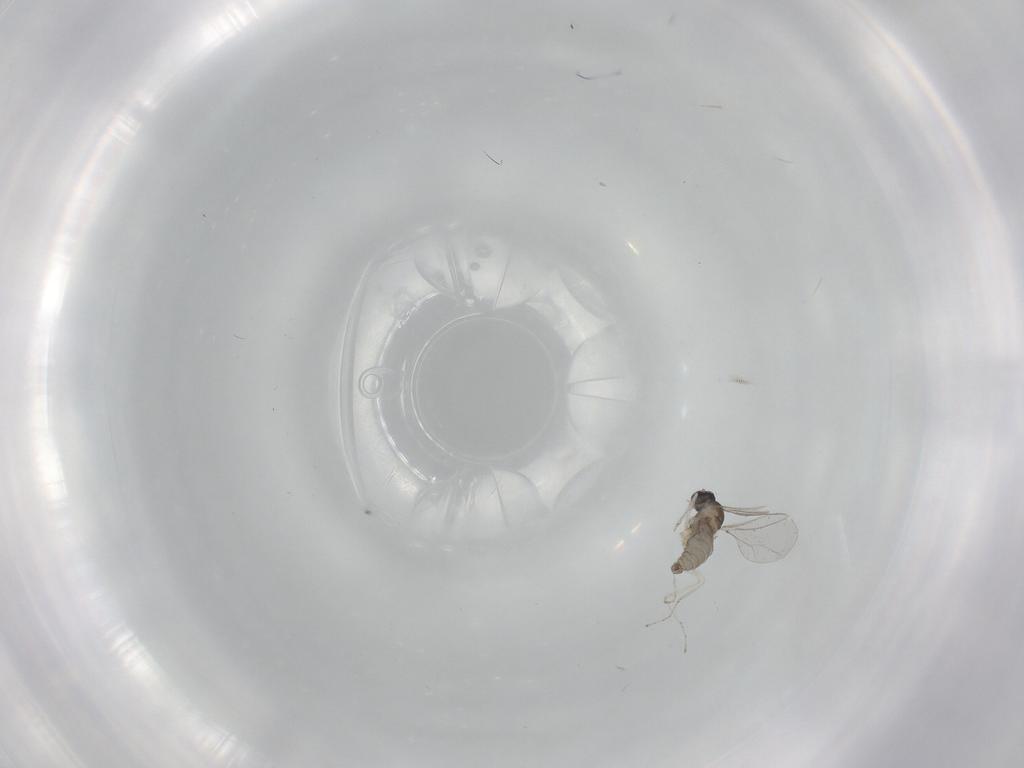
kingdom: Animalia
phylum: Arthropoda
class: Insecta
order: Diptera
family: Cecidomyiidae
